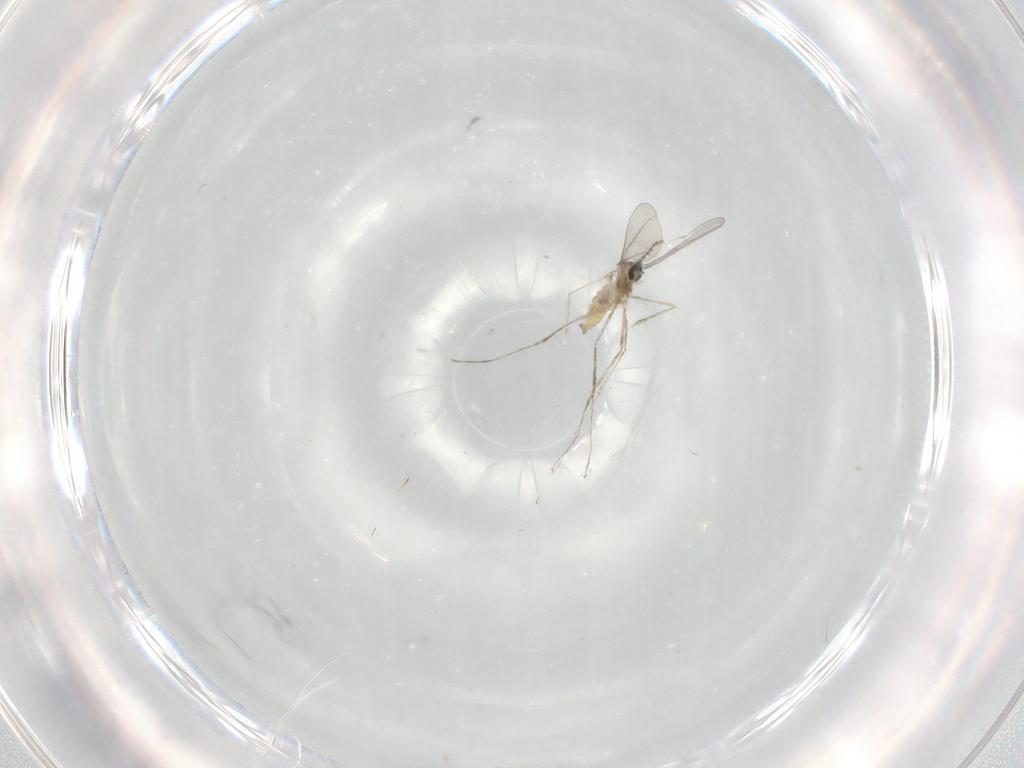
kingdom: Animalia
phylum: Arthropoda
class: Insecta
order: Diptera
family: Cecidomyiidae
